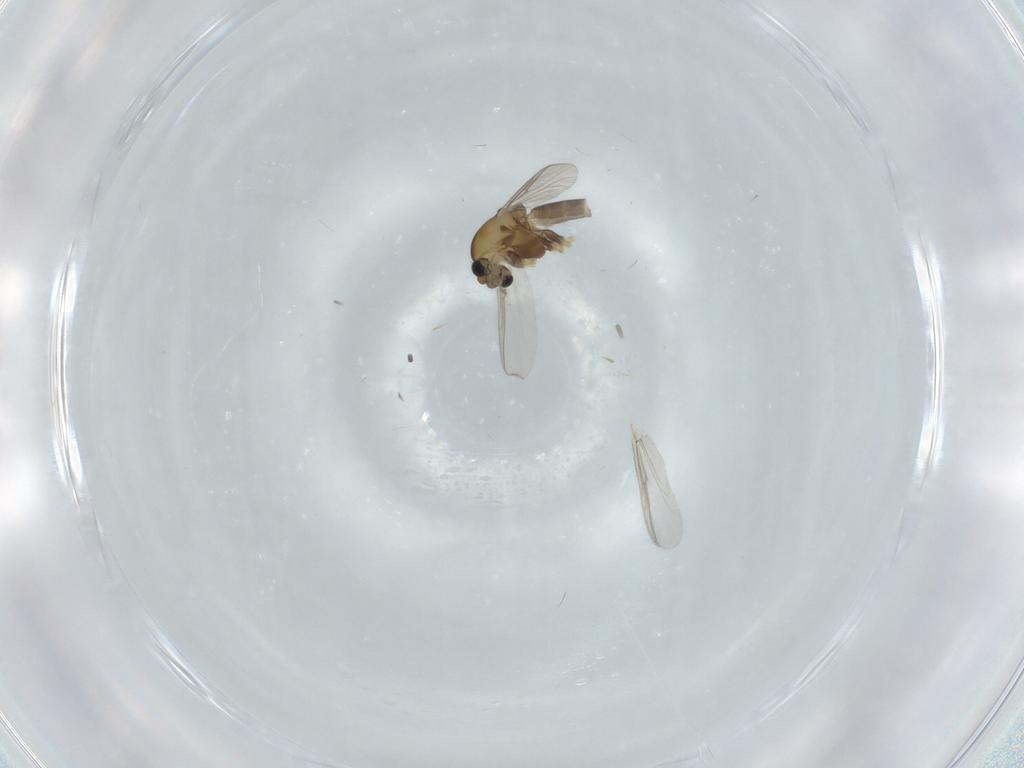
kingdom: Animalia
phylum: Arthropoda
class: Insecta
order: Diptera
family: Chironomidae
